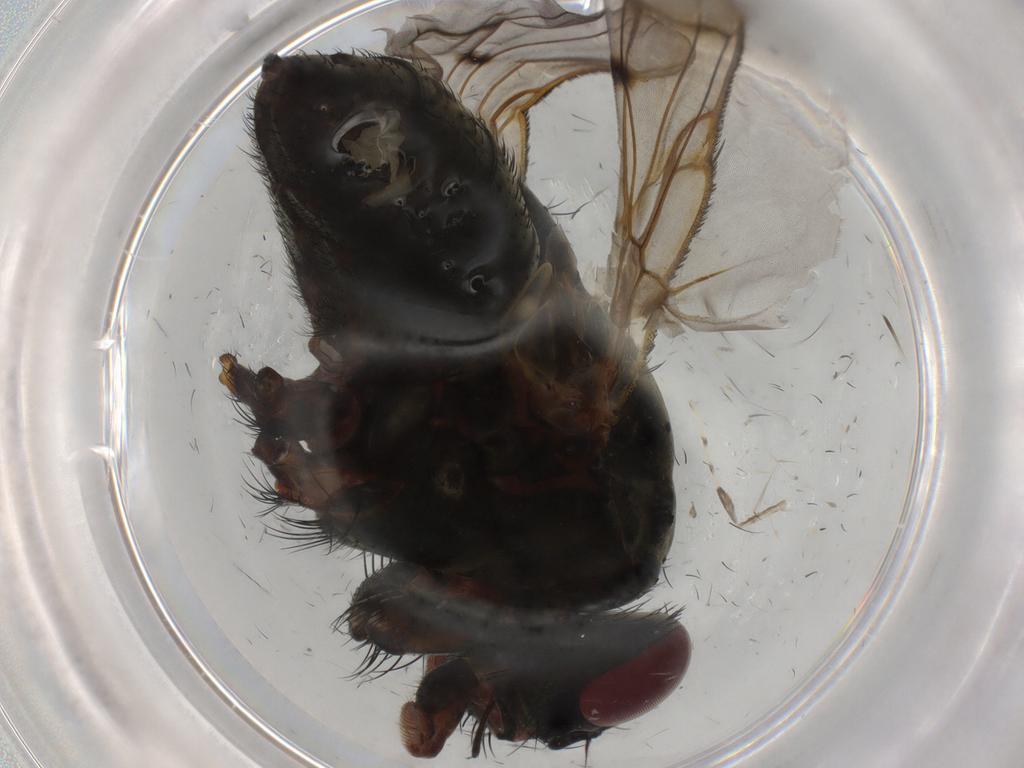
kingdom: Animalia
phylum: Arthropoda
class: Insecta
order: Diptera
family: Muscidae
